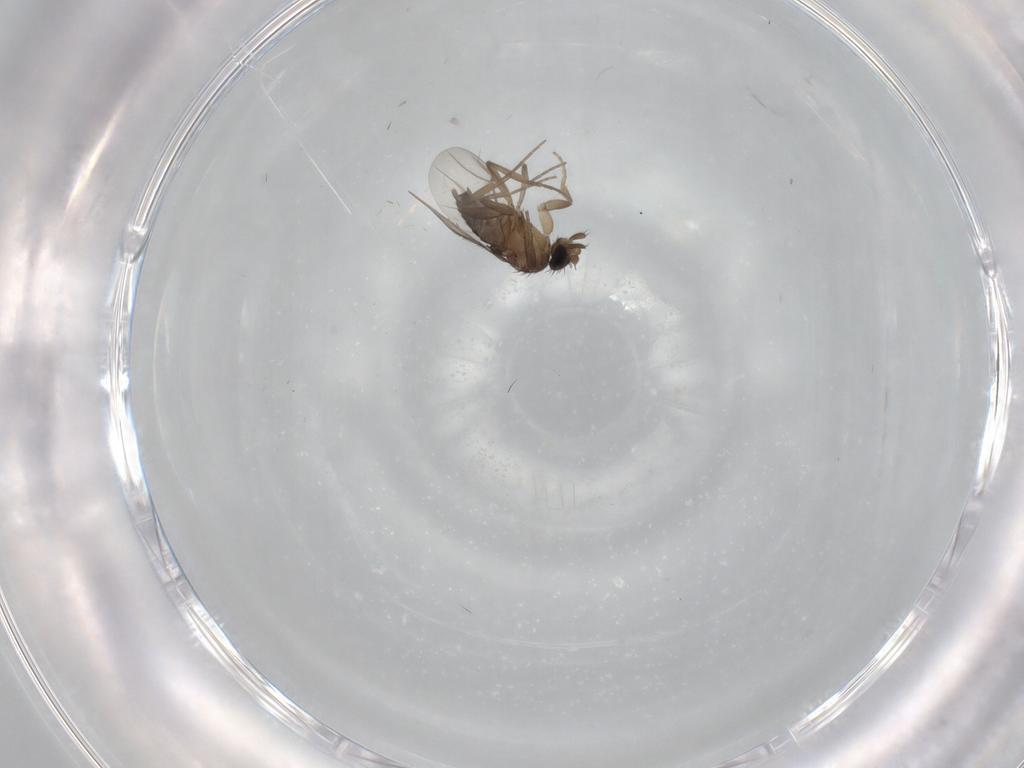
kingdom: Animalia
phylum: Arthropoda
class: Insecta
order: Diptera
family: Phoridae
